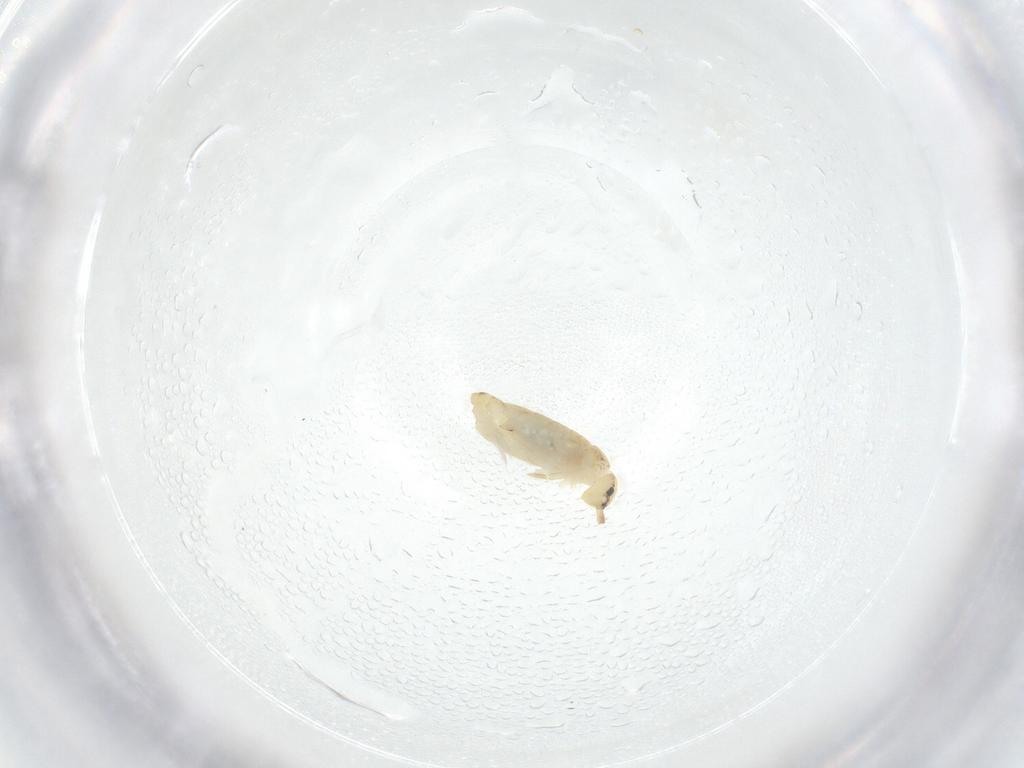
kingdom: Animalia
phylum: Arthropoda
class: Collembola
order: Entomobryomorpha
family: Entomobryidae
